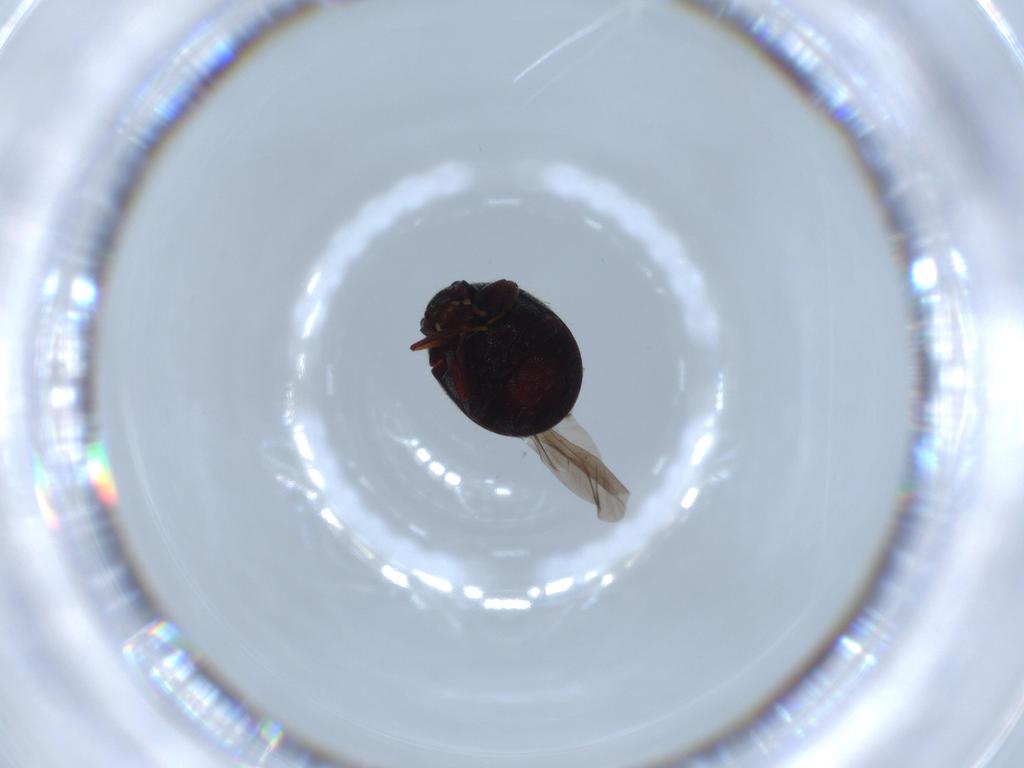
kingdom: Animalia
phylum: Arthropoda
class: Insecta
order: Coleoptera
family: Ptinidae
